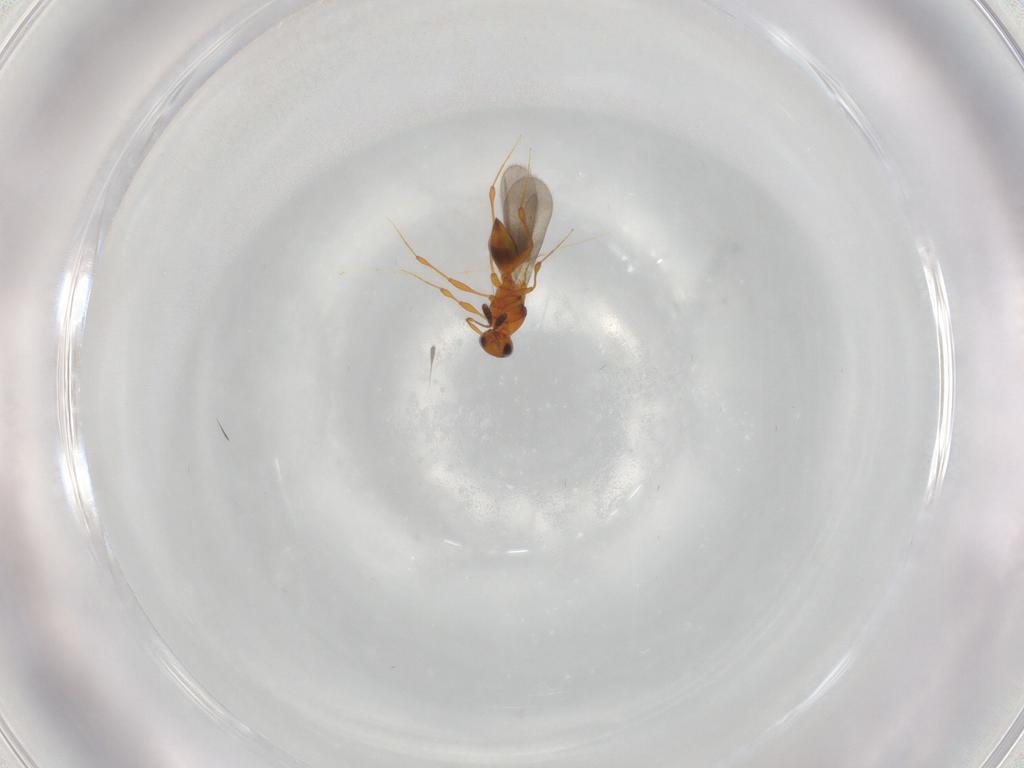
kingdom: Animalia
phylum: Arthropoda
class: Insecta
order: Hymenoptera
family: Platygastridae
